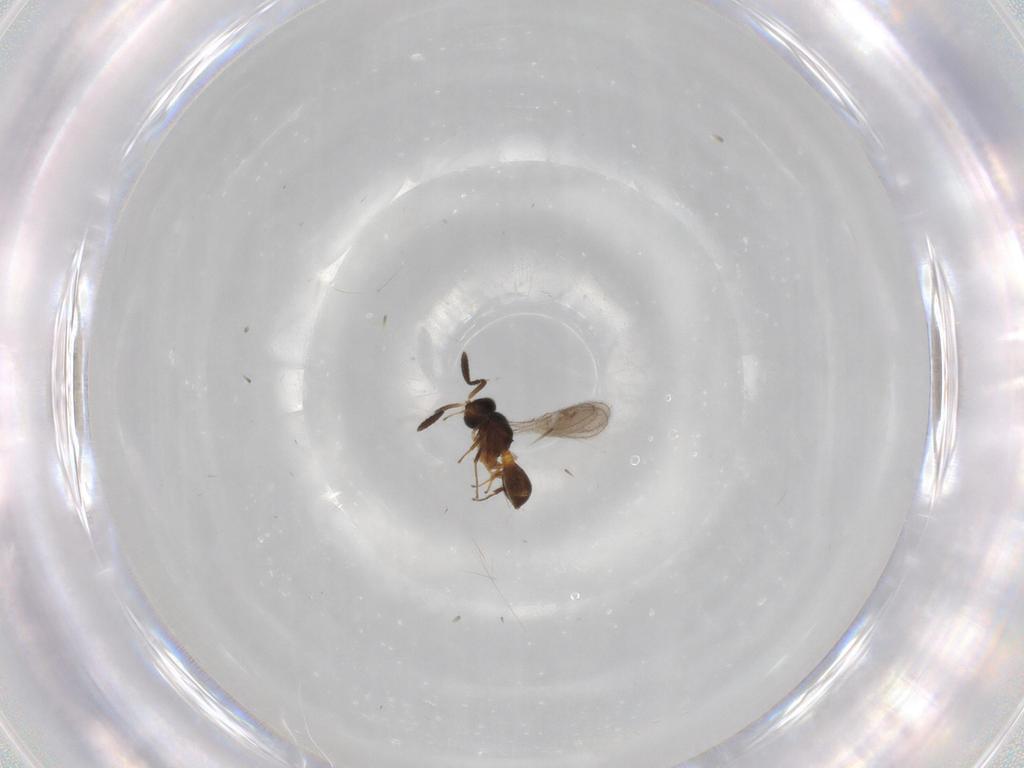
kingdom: Animalia
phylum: Arthropoda
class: Insecta
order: Hymenoptera
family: Scelionidae
